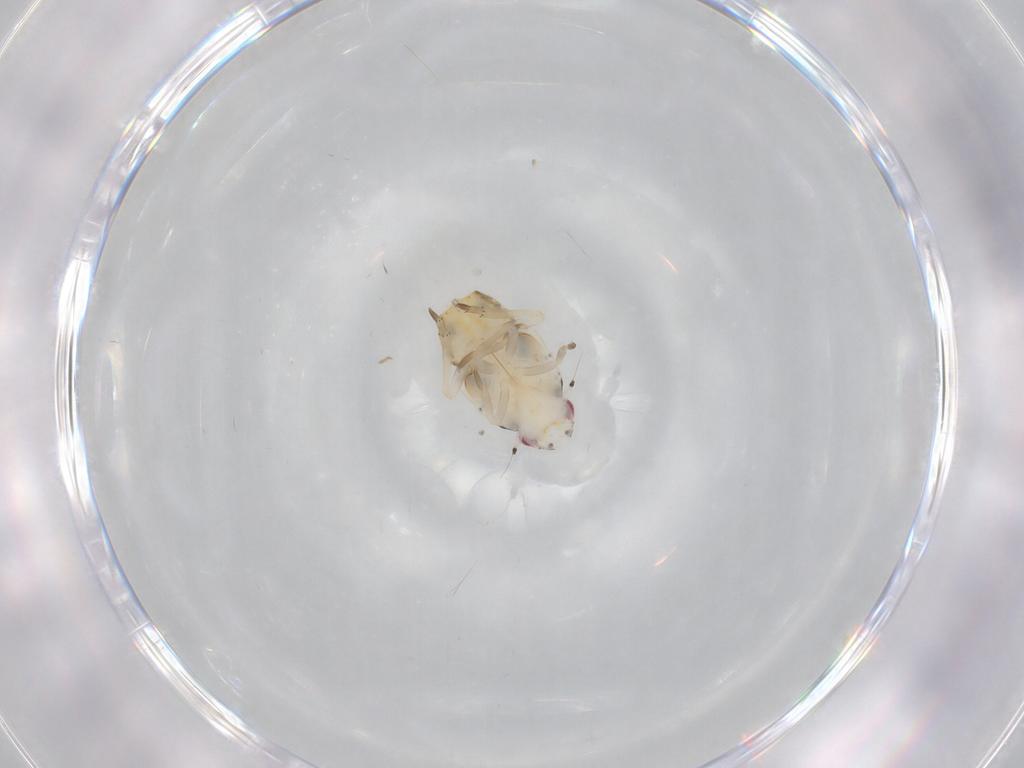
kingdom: Animalia
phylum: Arthropoda
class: Insecta
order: Hemiptera
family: Flatidae
